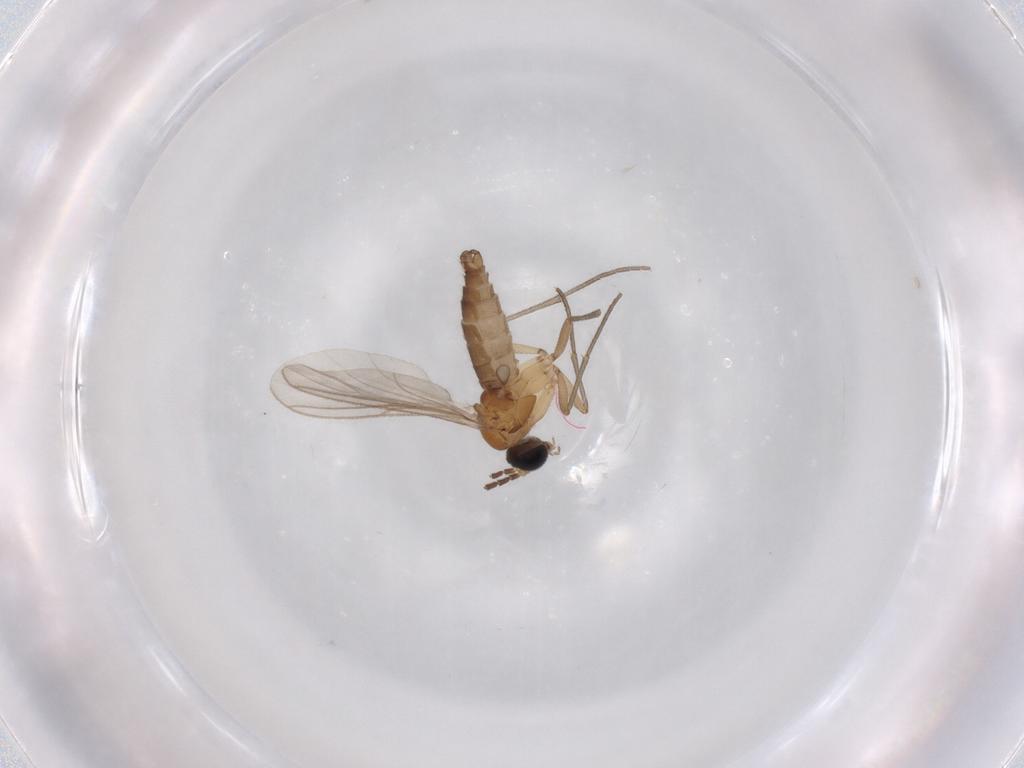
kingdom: Animalia
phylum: Arthropoda
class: Insecta
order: Diptera
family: Sciaridae
